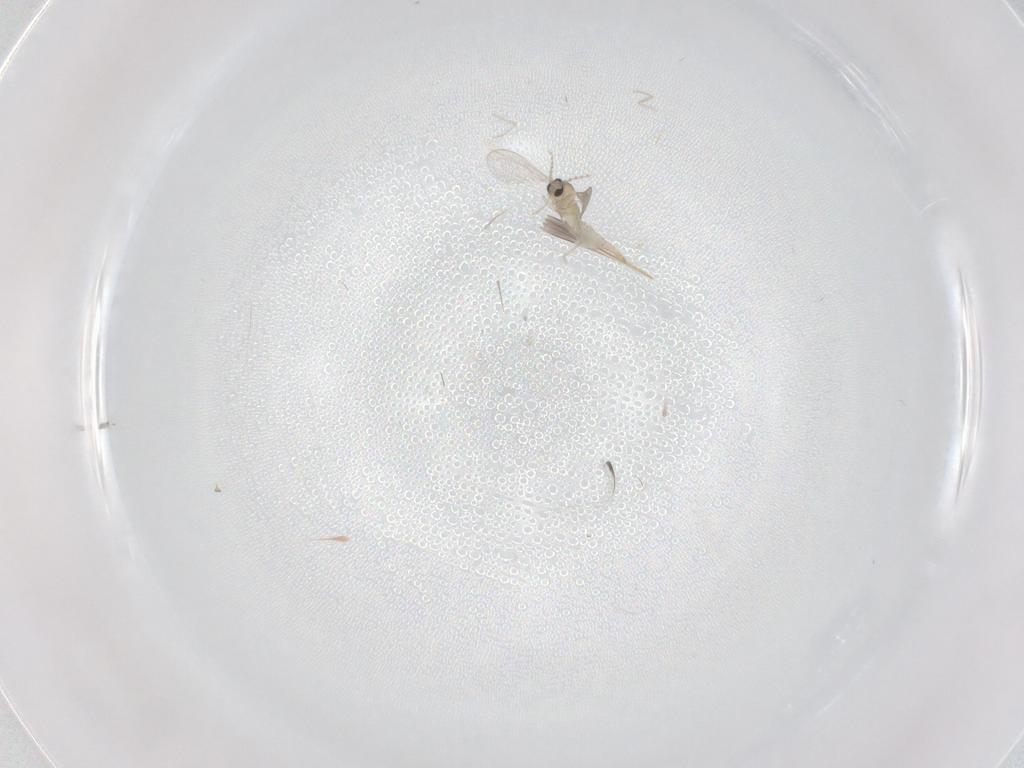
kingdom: Animalia
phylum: Arthropoda
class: Insecta
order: Diptera
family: Cecidomyiidae
